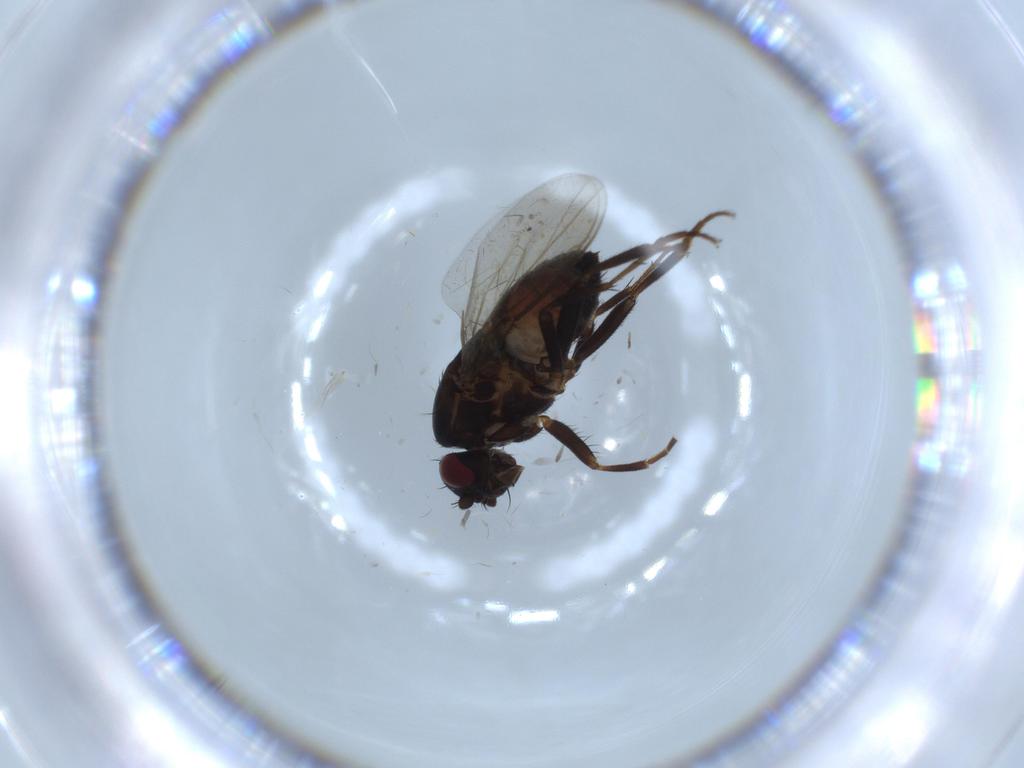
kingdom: Animalia
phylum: Arthropoda
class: Insecta
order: Diptera
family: Sphaeroceridae
